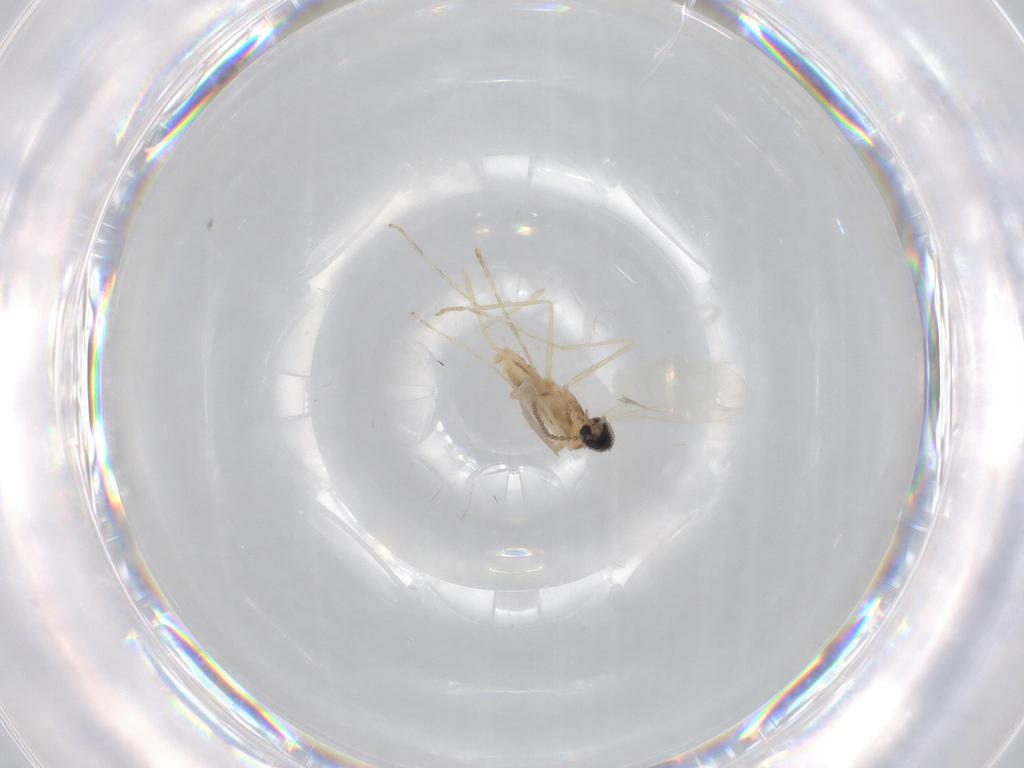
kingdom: Animalia
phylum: Arthropoda
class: Insecta
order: Diptera
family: Cecidomyiidae
